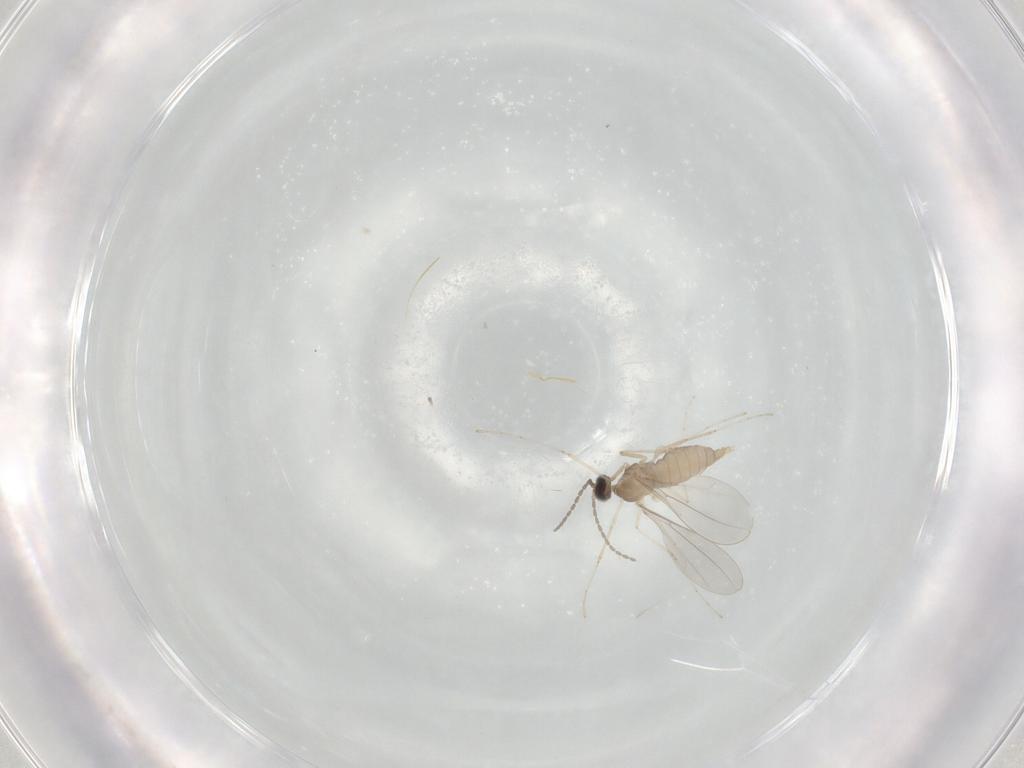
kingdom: Animalia
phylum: Arthropoda
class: Insecta
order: Diptera
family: Cecidomyiidae
